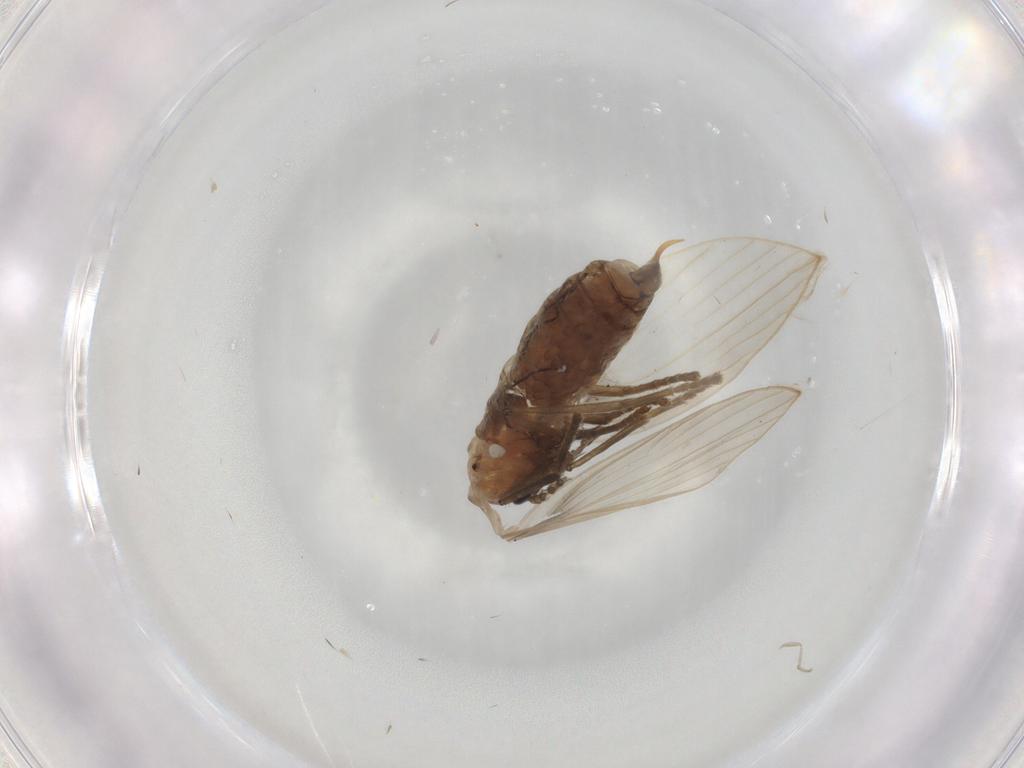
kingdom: Animalia
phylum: Arthropoda
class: Insecta
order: Diptera
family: Psychodidae
